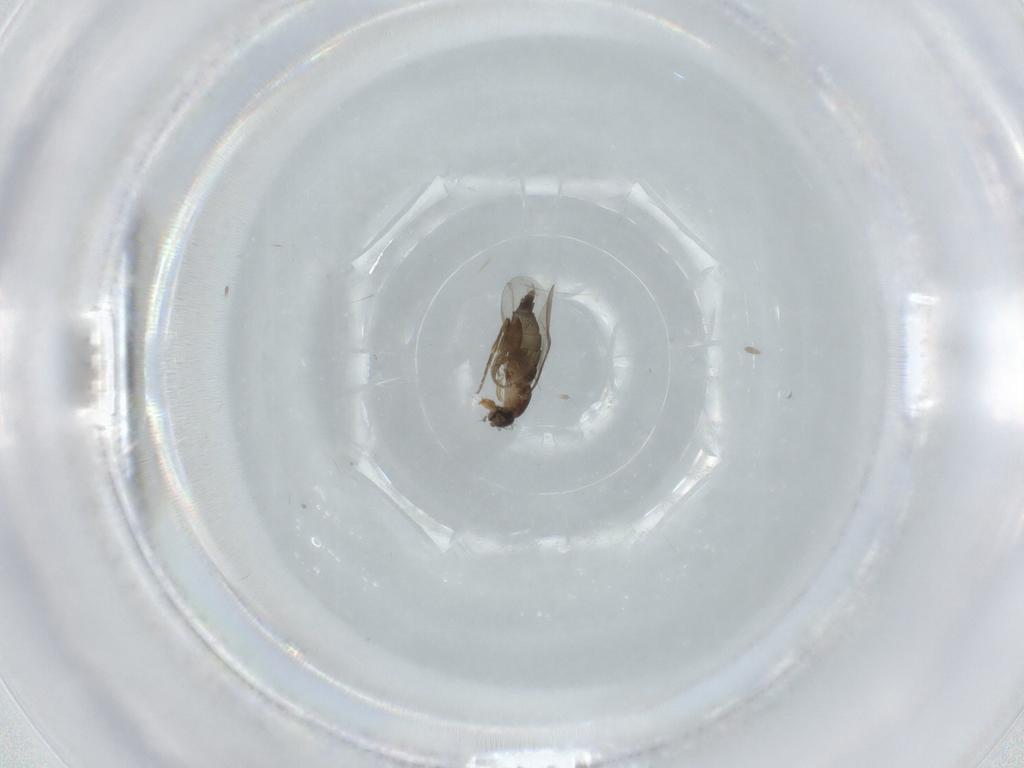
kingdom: Animalia
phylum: Arthropoda
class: Insecta
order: Diptera
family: Phoridae
